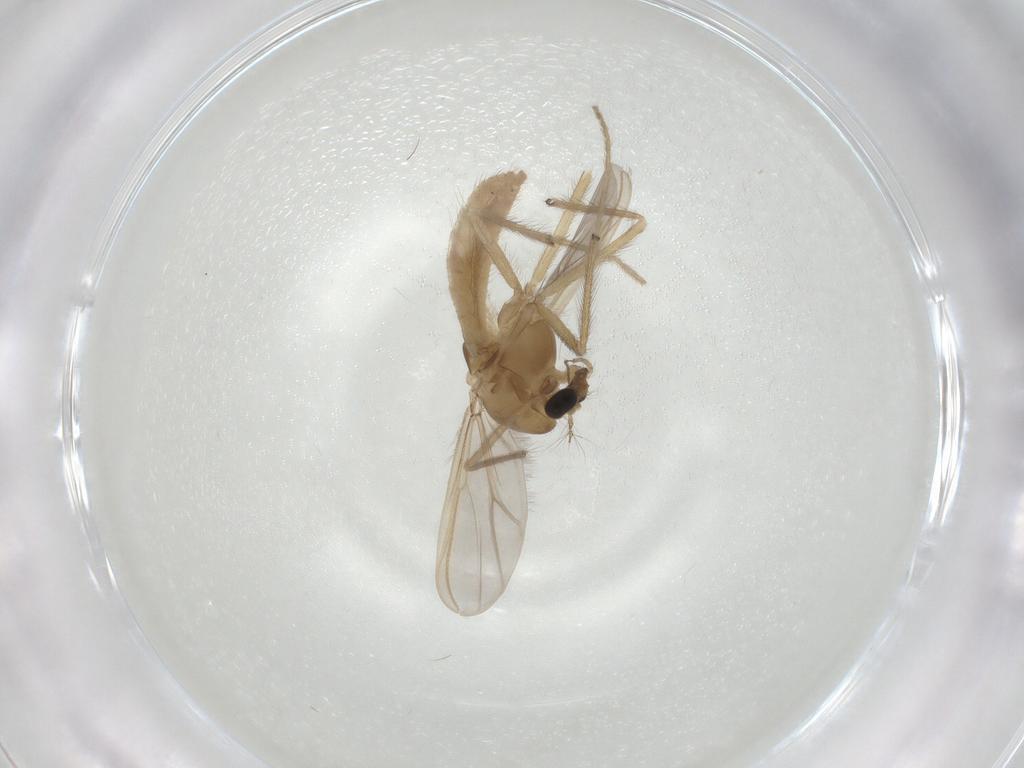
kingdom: Animalia
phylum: Arthropoda
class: Insecta
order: Diptera
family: Chironomidae
